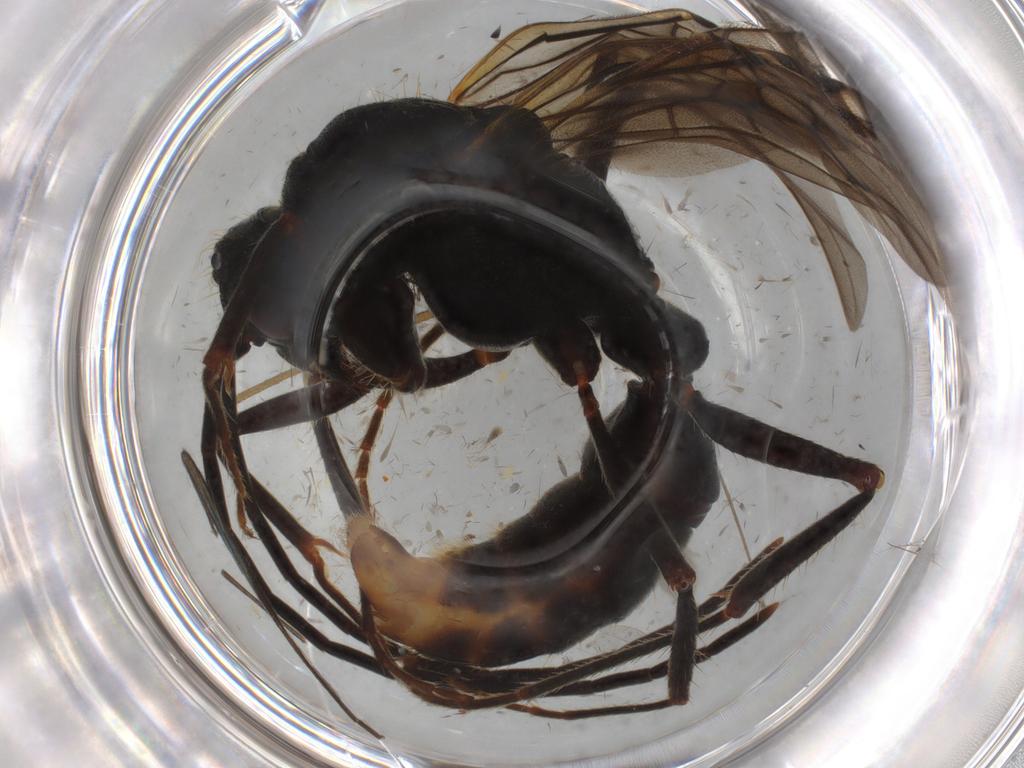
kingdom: Animalia
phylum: Arthropoda
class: Insecta
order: Hymenoptera
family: Formicidae
